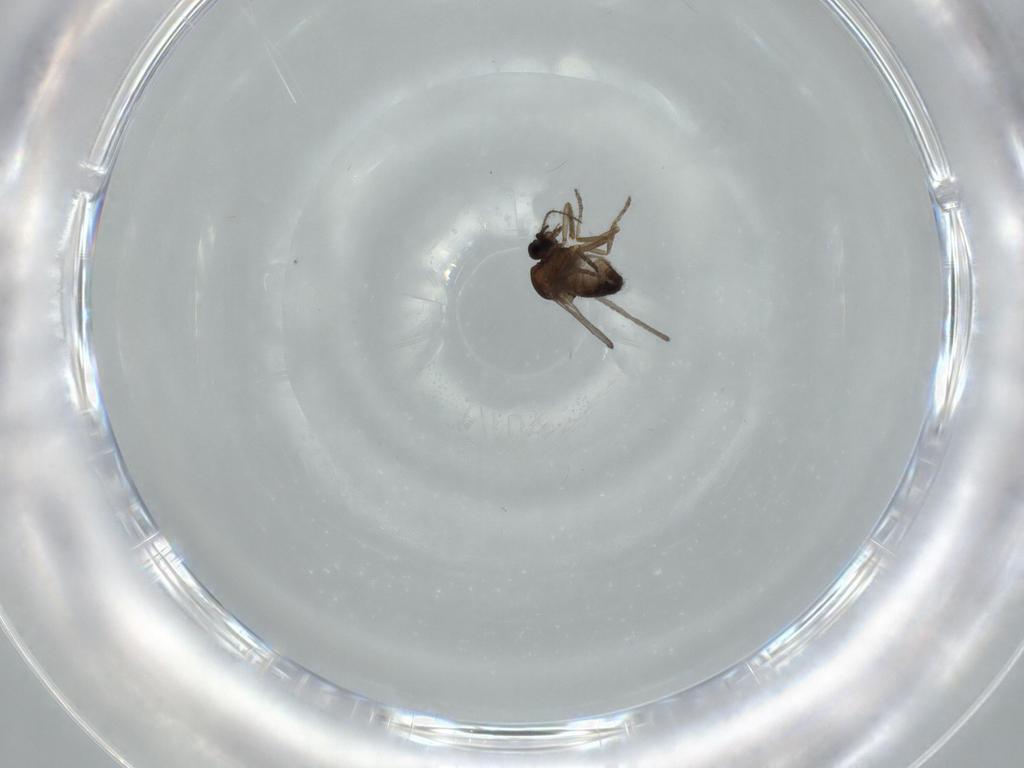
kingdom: Animalia
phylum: Arthropoda
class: Insecta
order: Diptera
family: Ceratopogonidae
